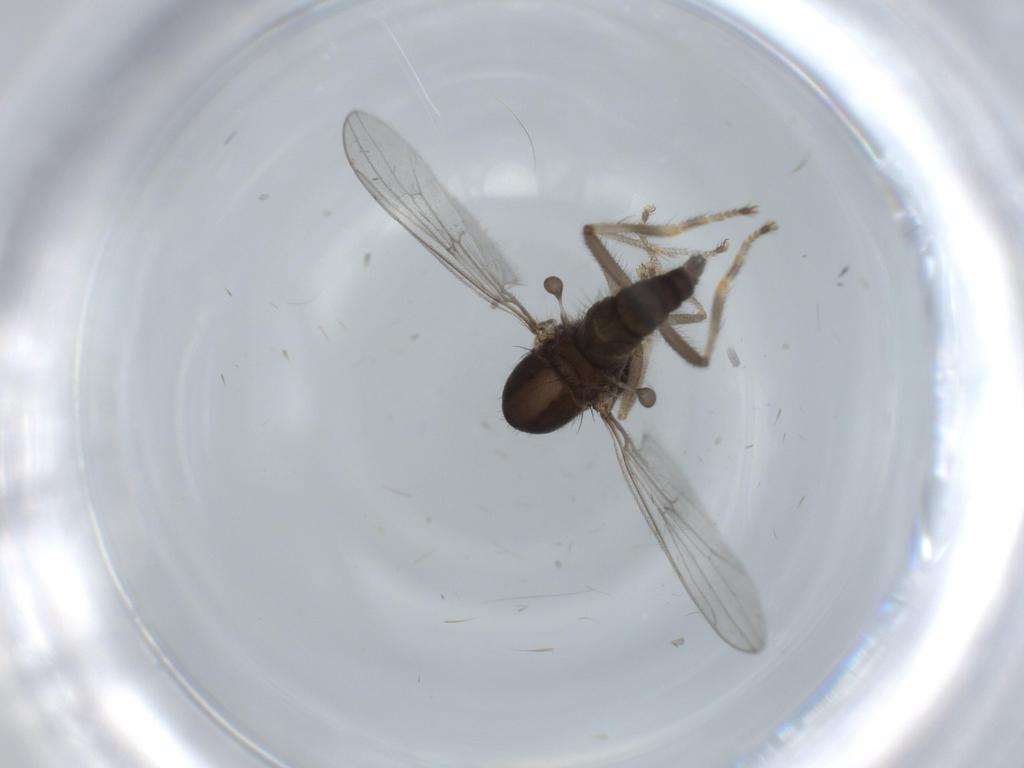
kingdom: Animalia
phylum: Arthropoda
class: Insecta
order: Diptera
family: Hybotidae
